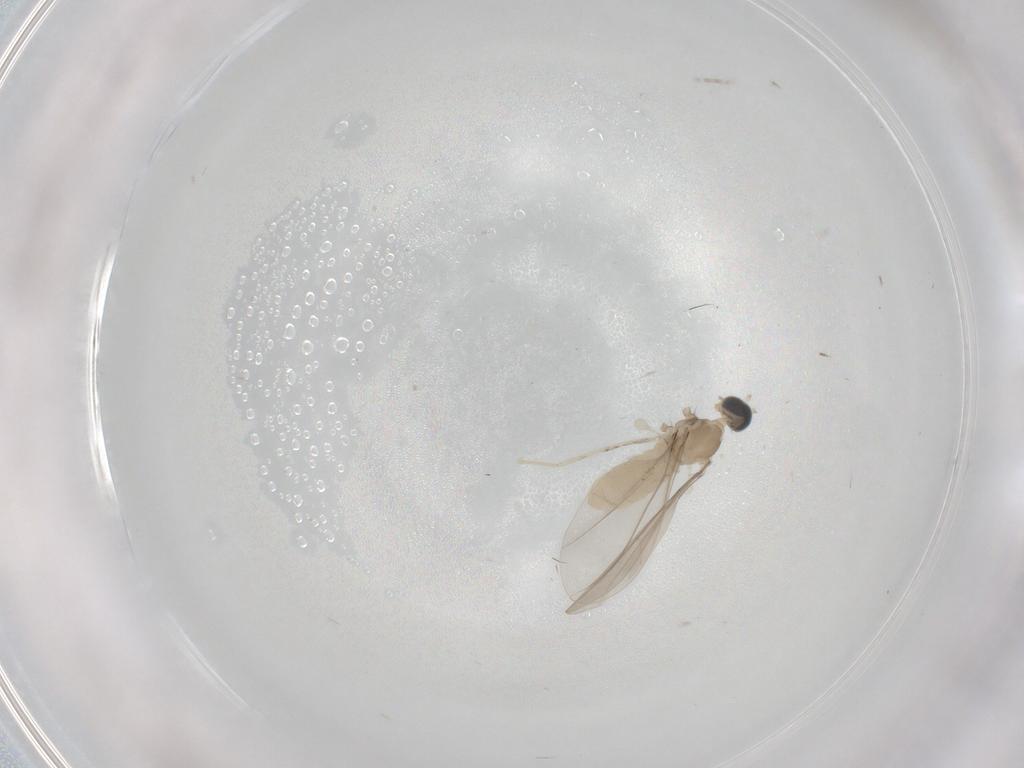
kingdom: Animalia
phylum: Arthropoda
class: Insecta
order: Diptera
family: Cecidomyiidae
